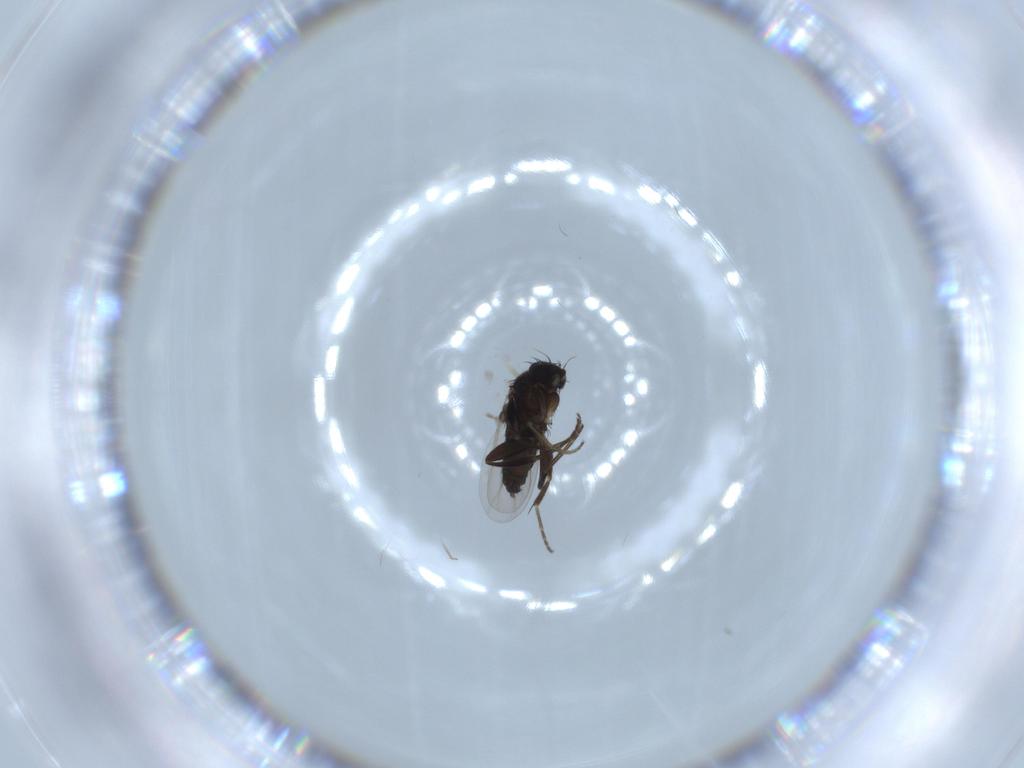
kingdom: Animalia
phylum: Arthropoda
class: Insecta
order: Diptera
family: Phoridae
